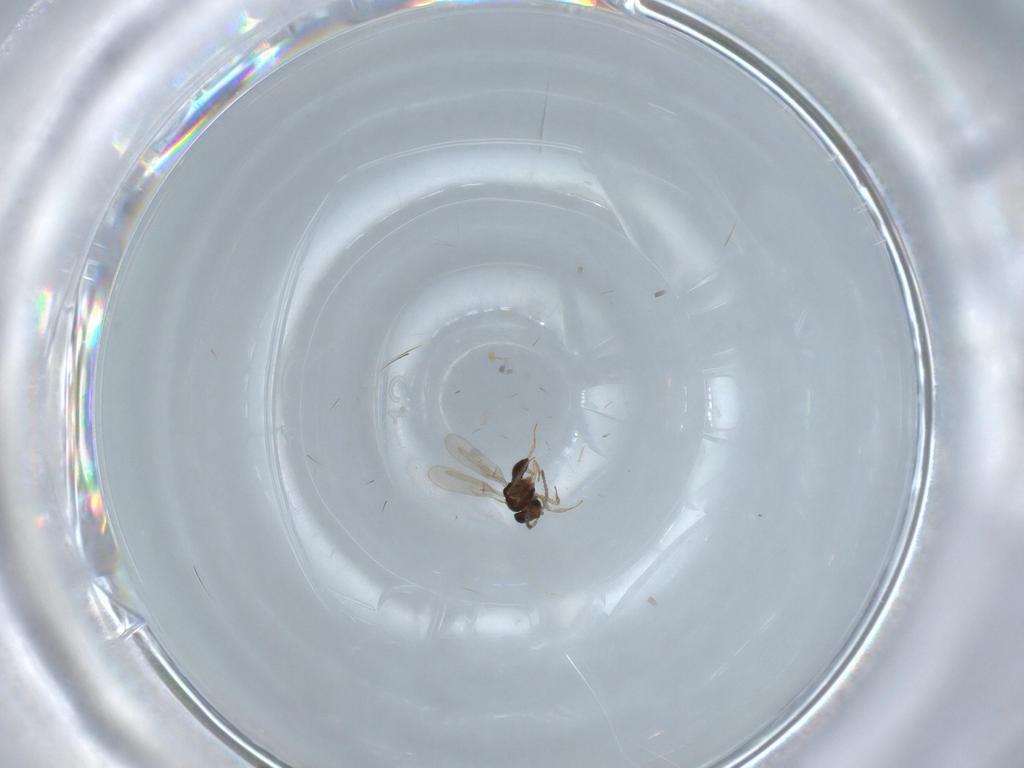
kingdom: Animalia
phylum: Arthropoda
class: Insecta
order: Hymenoptera
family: Scelionidae
